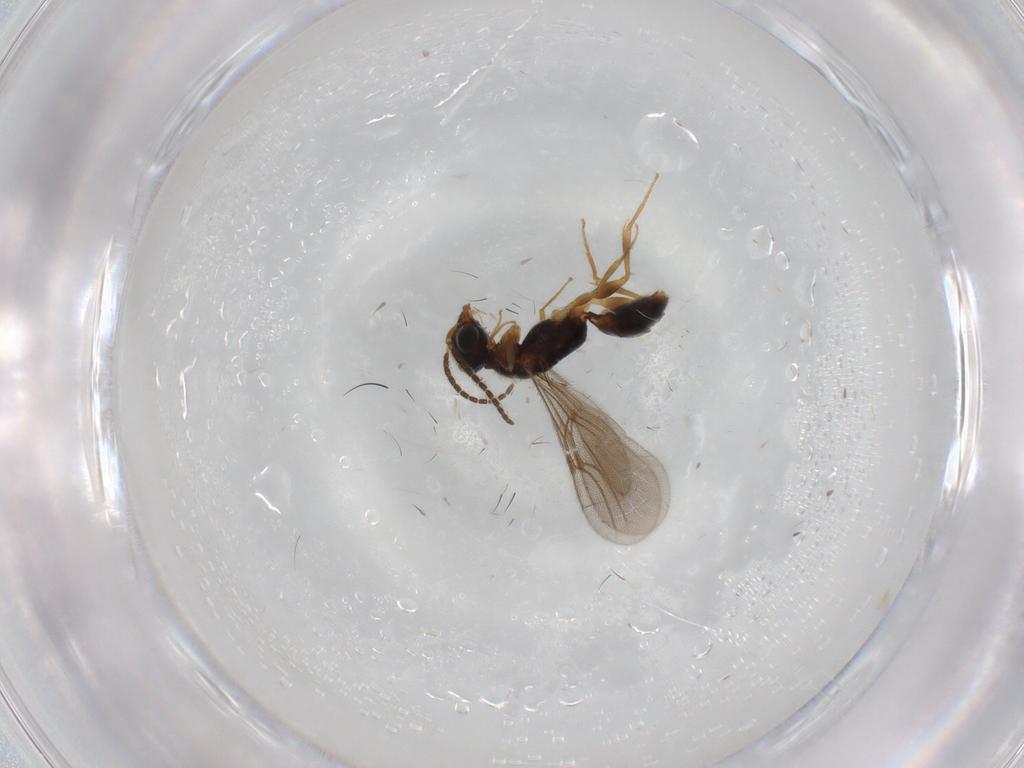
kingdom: Animalia
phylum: Arthropoda
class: Insecta
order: Hymenoptera
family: Bethylidae
